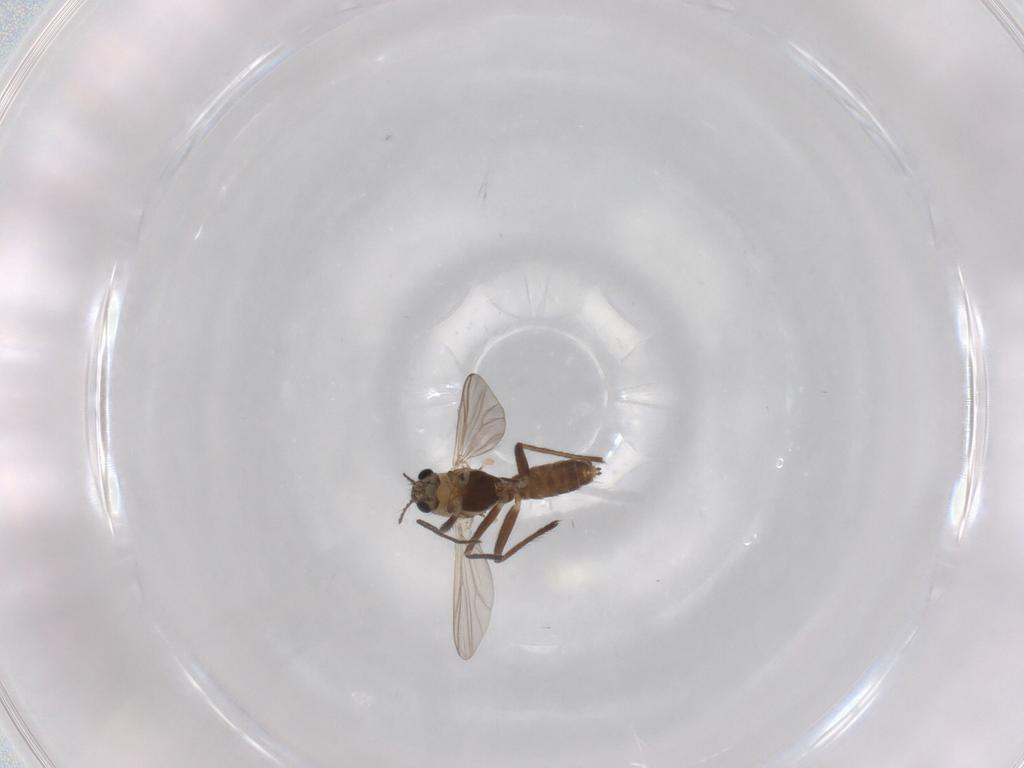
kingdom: Animalia
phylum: Arthropoda
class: Insecta
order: Diptera
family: Chironomidae
